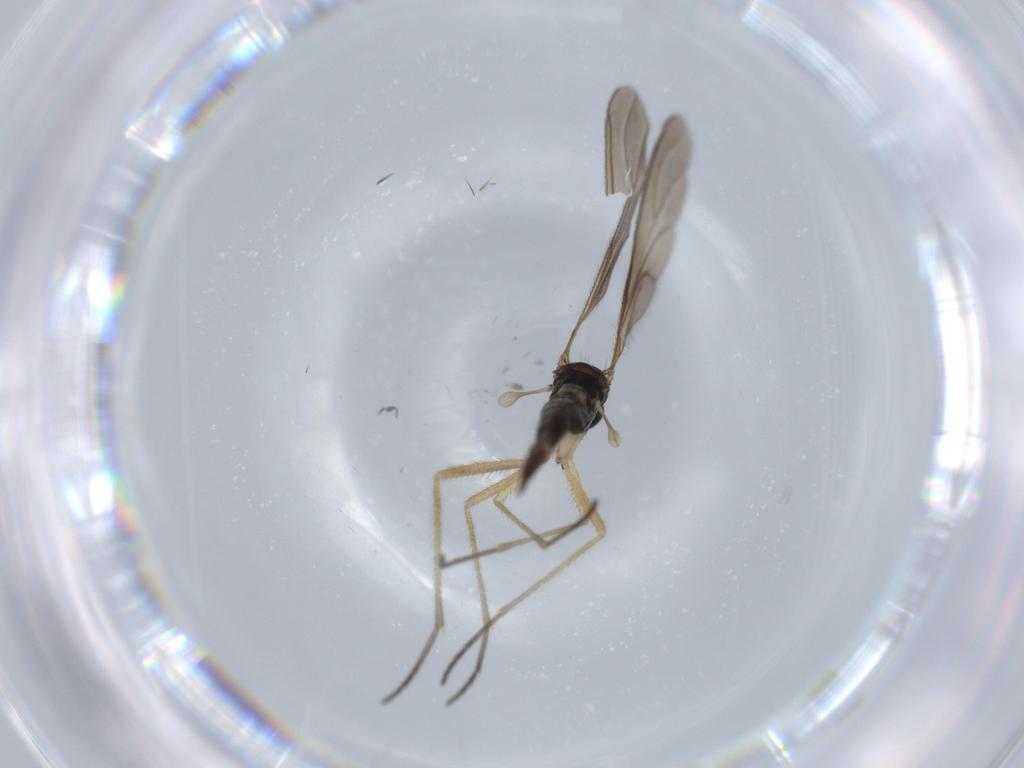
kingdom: Animalia
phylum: Arthropoda
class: Insecta
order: Diptera
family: Sciaridae
